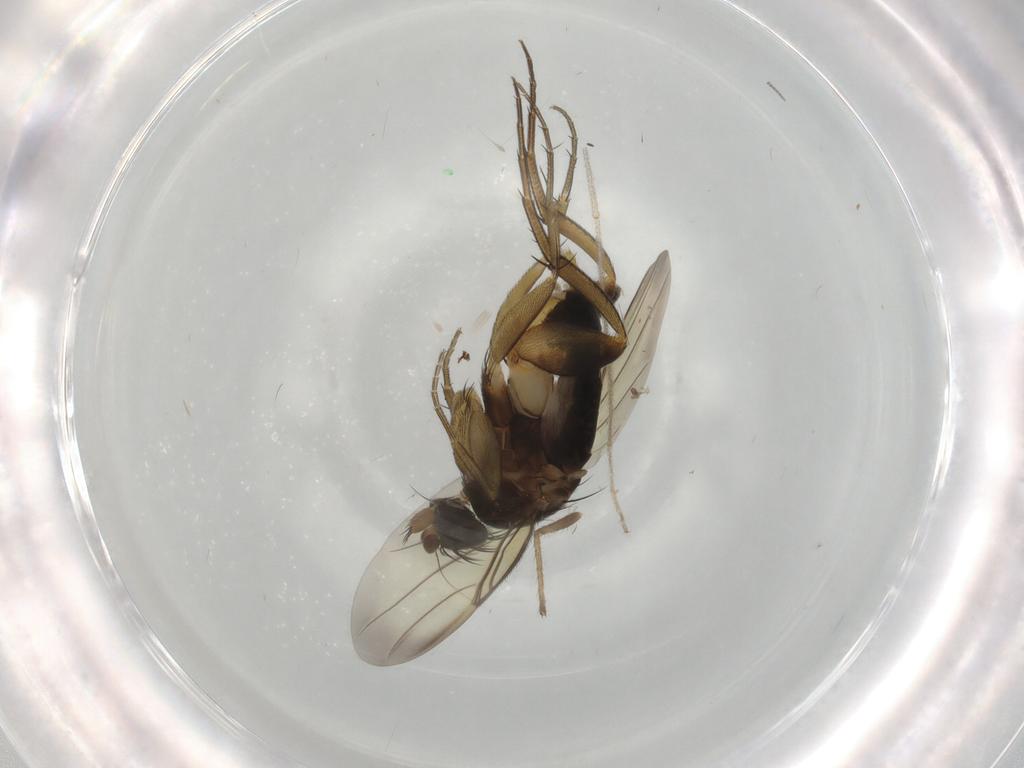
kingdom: Animalia
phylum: Arthropoda
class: Insecta
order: Diptera
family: Phoridae
